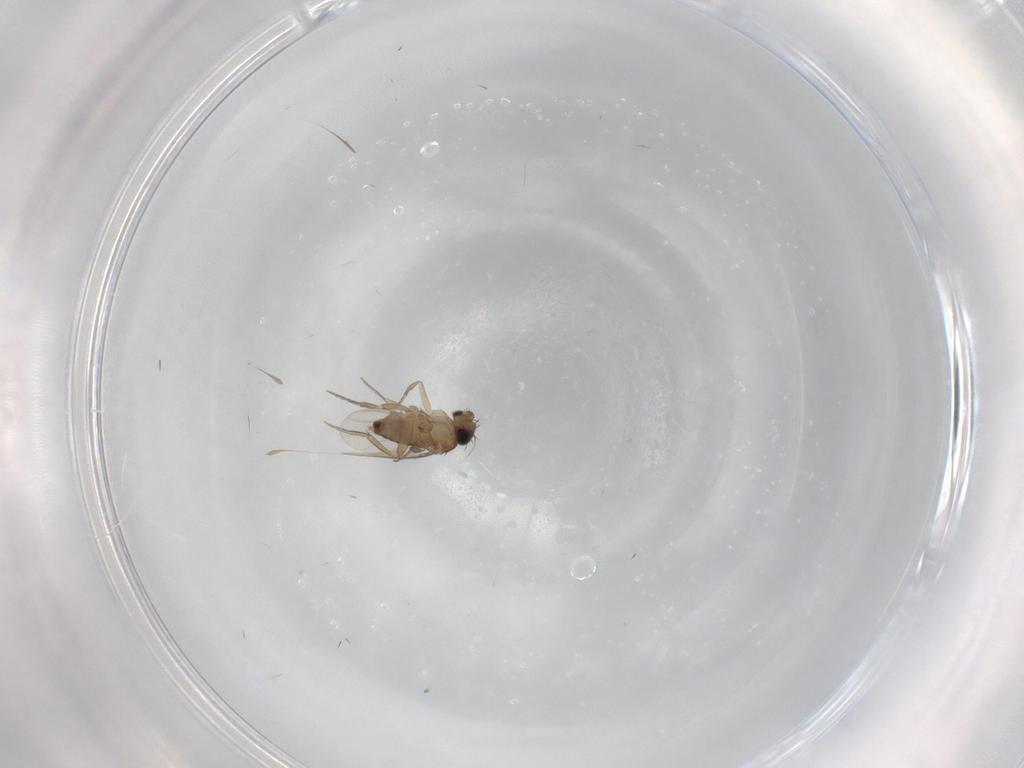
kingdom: Animalia
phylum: Arthropoda
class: Insecta
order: Diptera
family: Phoridae
